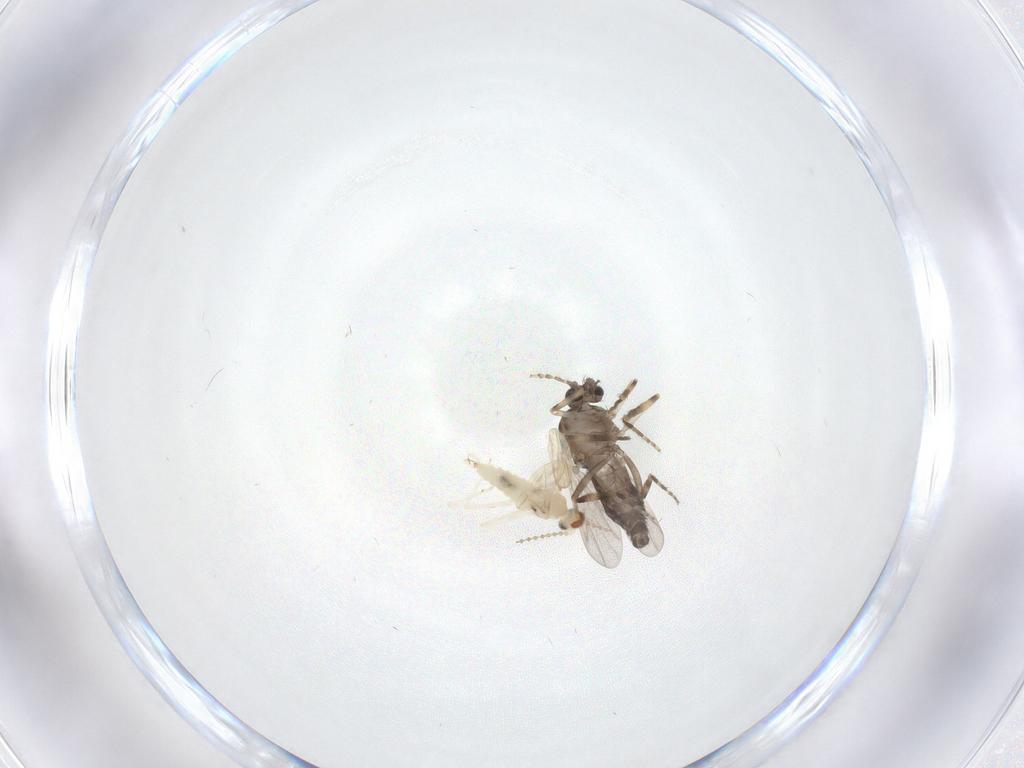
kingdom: Animalia
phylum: Arthropoda
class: Insecta
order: Diptera
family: Ceratopogonidae
